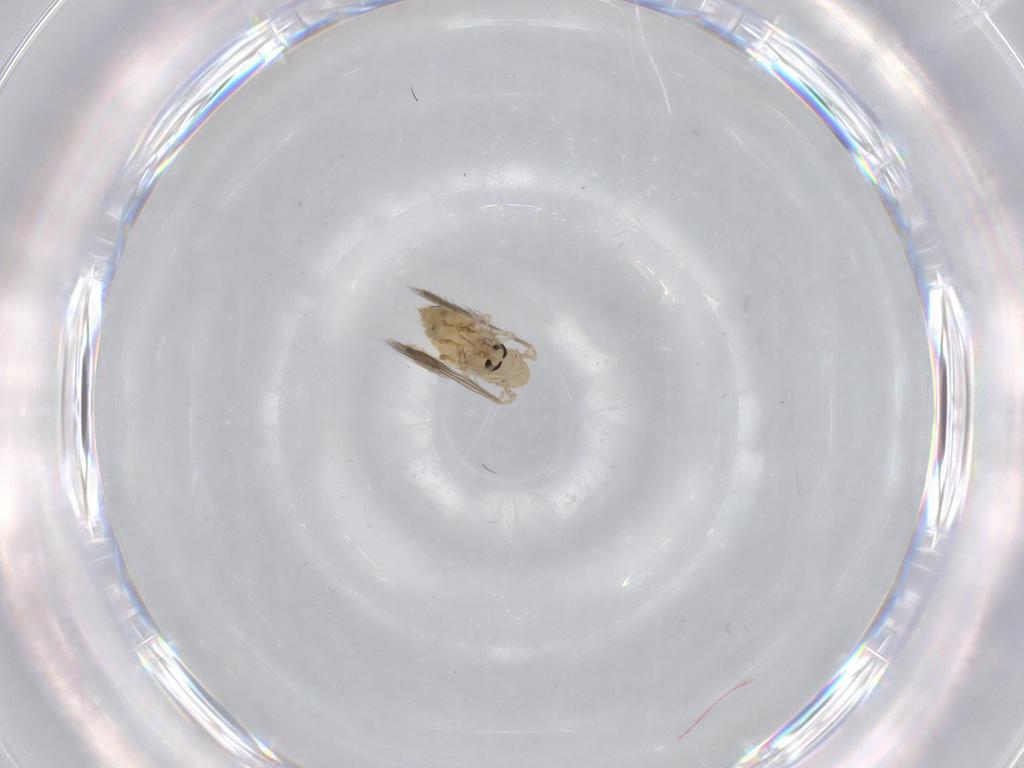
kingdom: Animalia
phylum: Arthropoda
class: Insecta
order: Diptera
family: Psychodidae
